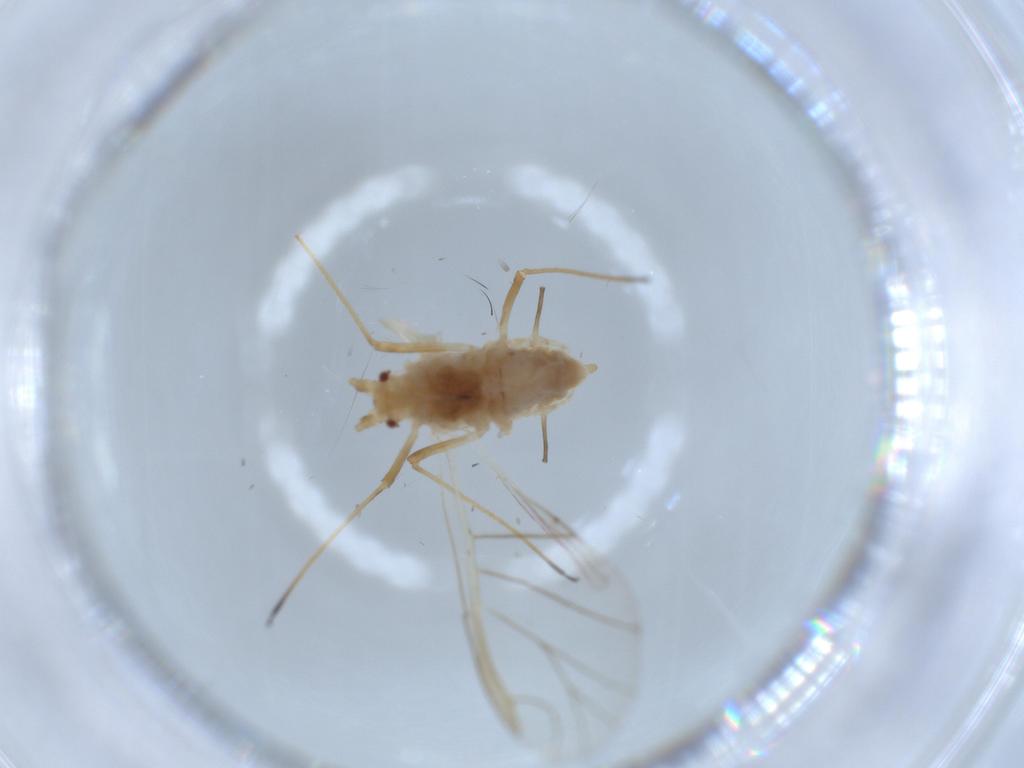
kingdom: Animalia
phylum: Arthropoda
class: Insecta
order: Hemiptera
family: Aphididae
